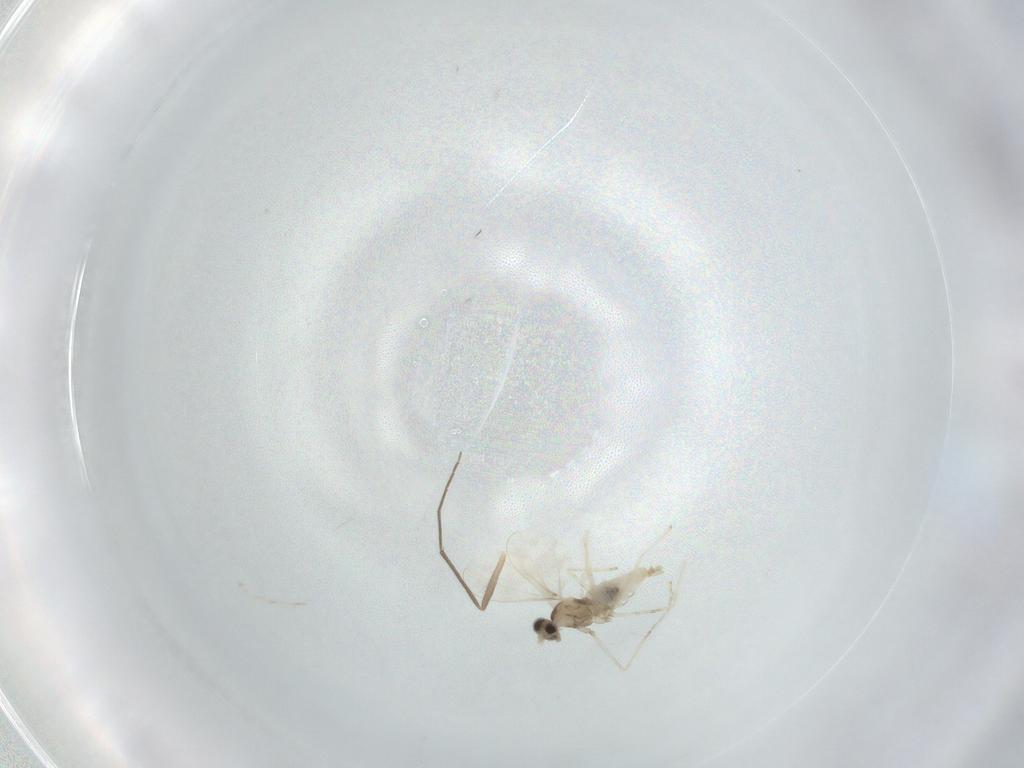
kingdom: Animalia
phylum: Arthropoda
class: Insecta
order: Diptera
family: Cecidomyiidae
